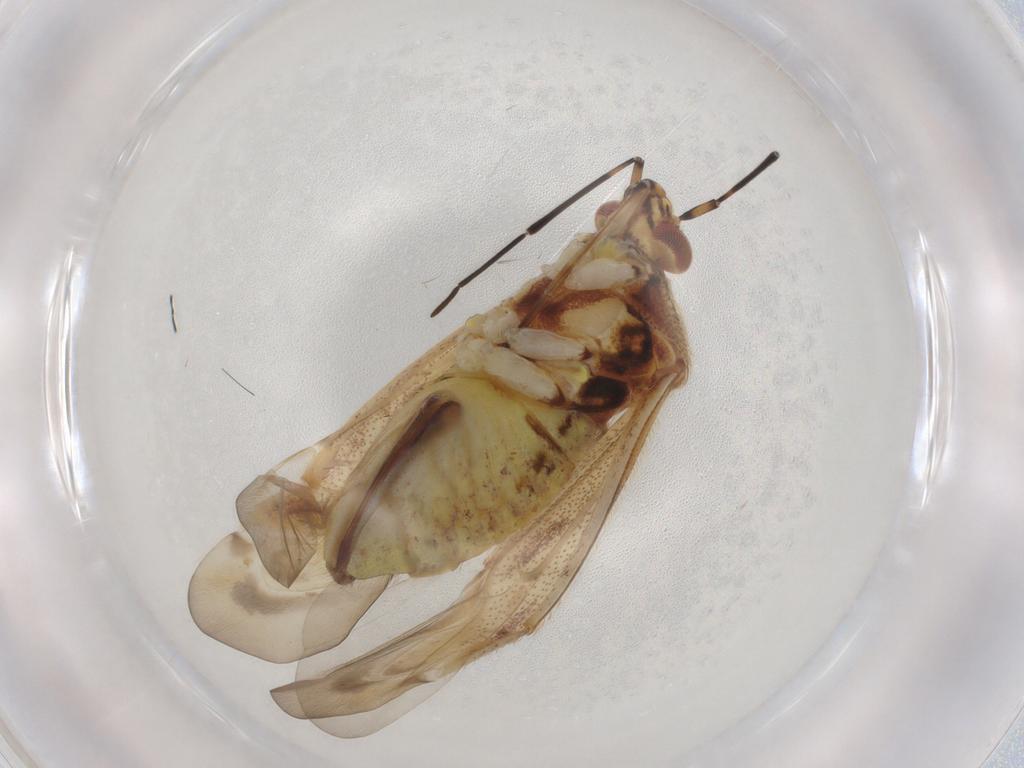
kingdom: Animalia
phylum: Arthropoda
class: Insecta
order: Hemiptera
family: Miridae
